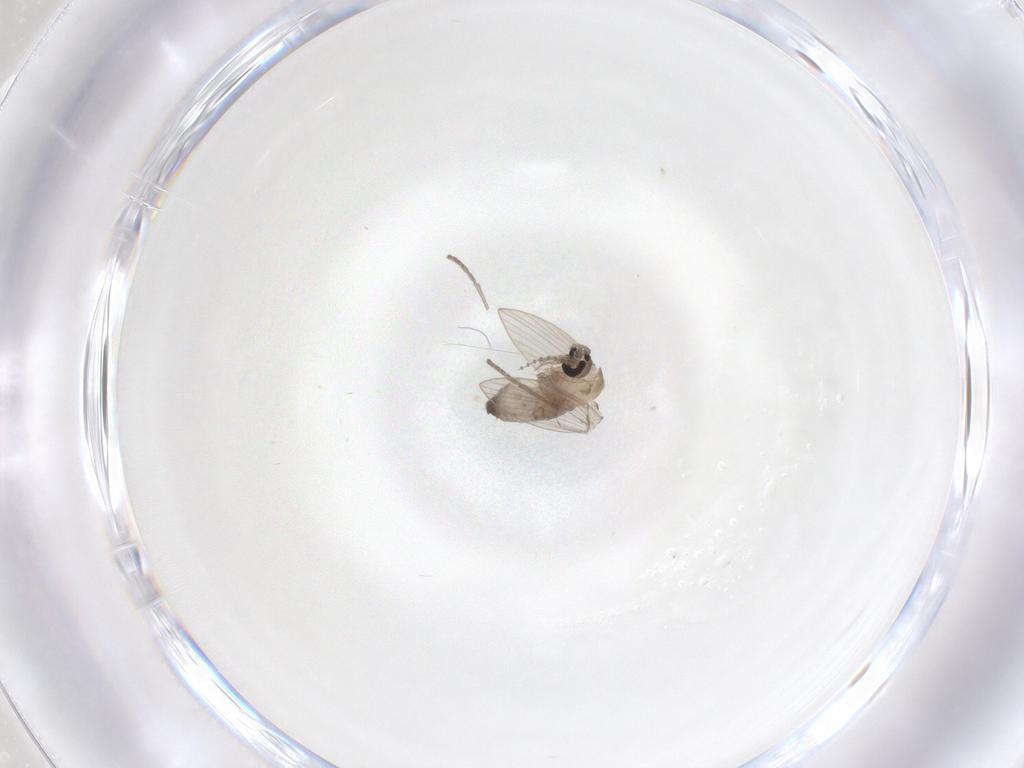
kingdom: Animalia
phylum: Arthropoda
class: Insecta
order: Diptera
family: Psychodidae
